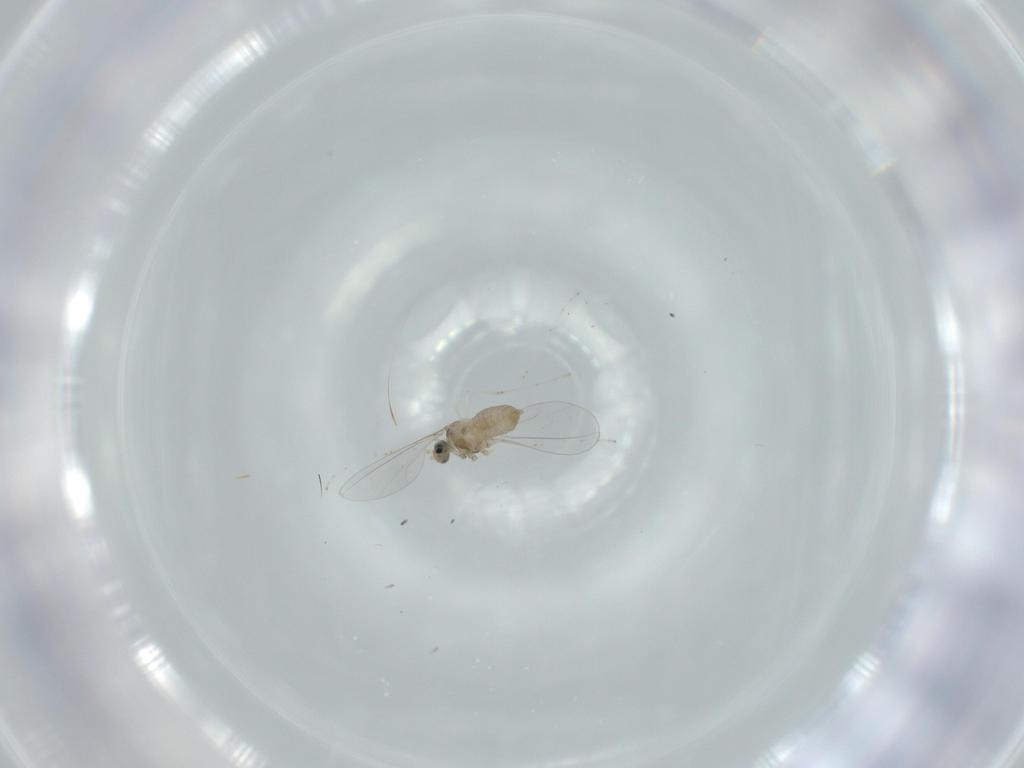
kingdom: Animalia
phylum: Arthropoda
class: Insecta
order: Diptera
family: Cecidomyiidae
